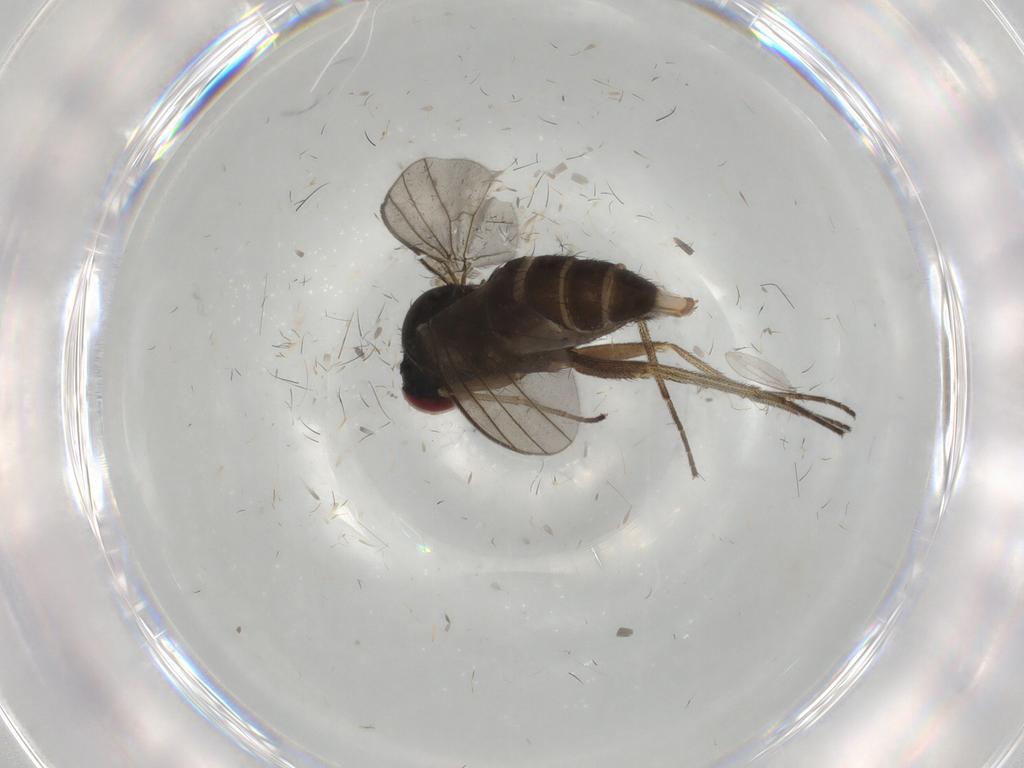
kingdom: Animalia
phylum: Arthropoda
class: Insecta
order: Diptera
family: Dolichopodidae
